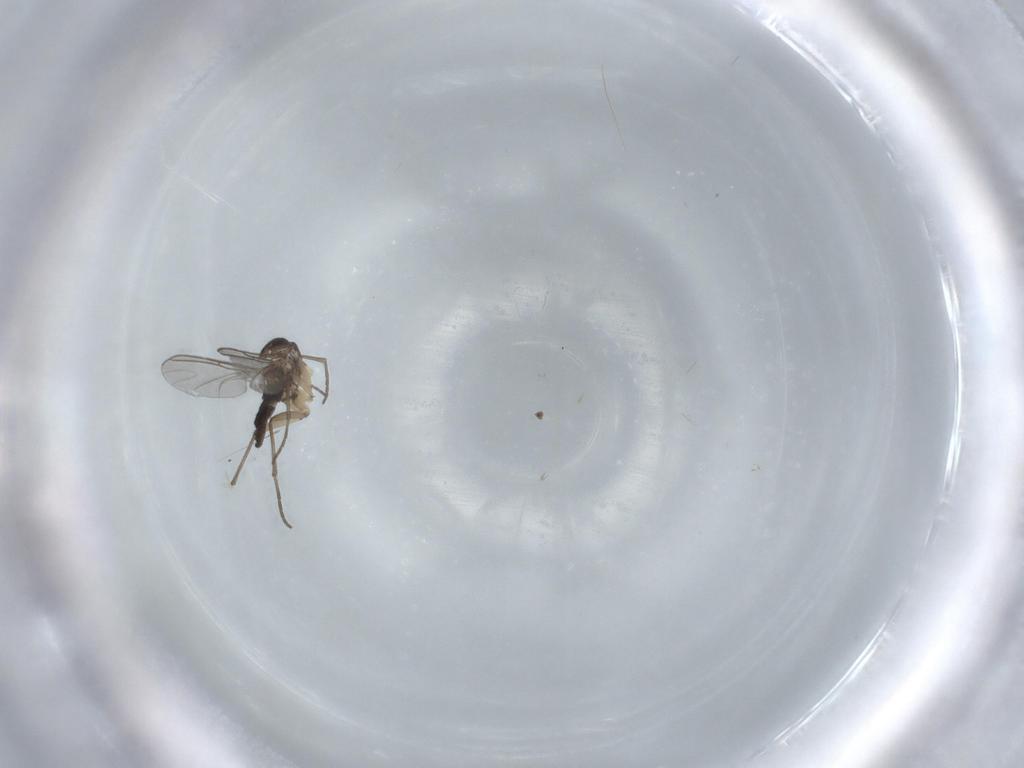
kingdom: Animalia
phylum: Arthropoda
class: Insecta
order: Diptera
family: Sciaridae
